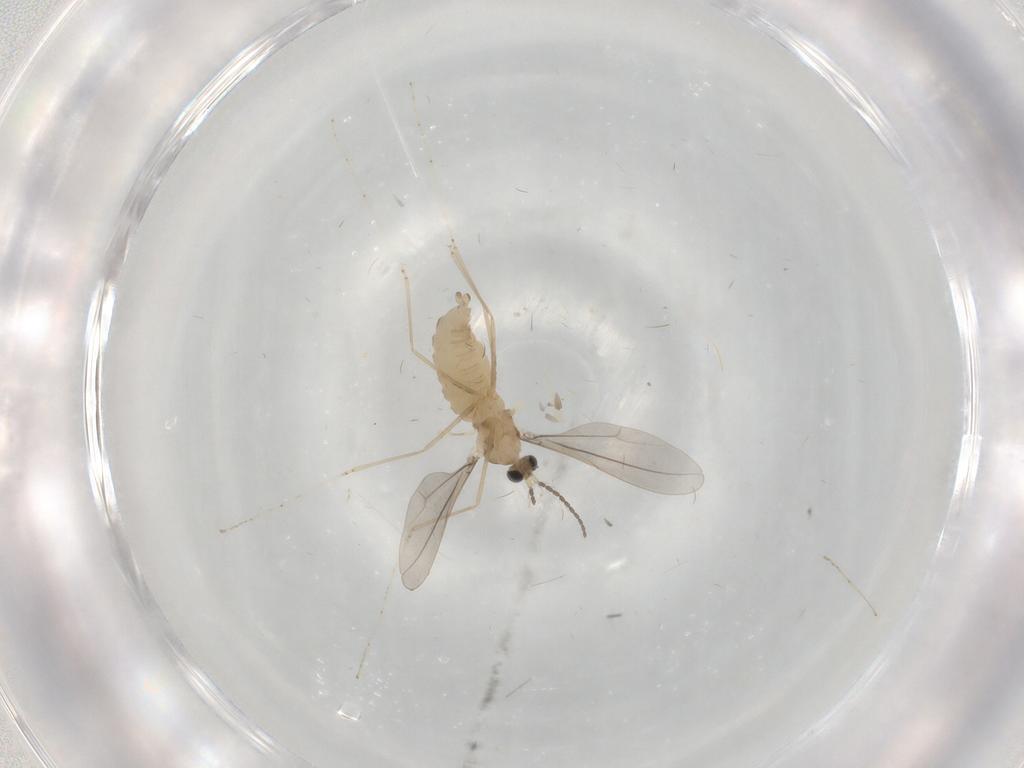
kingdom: Animalia
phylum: Arthropoda
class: Insecta
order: Diptera
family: Cecidomyiidae
